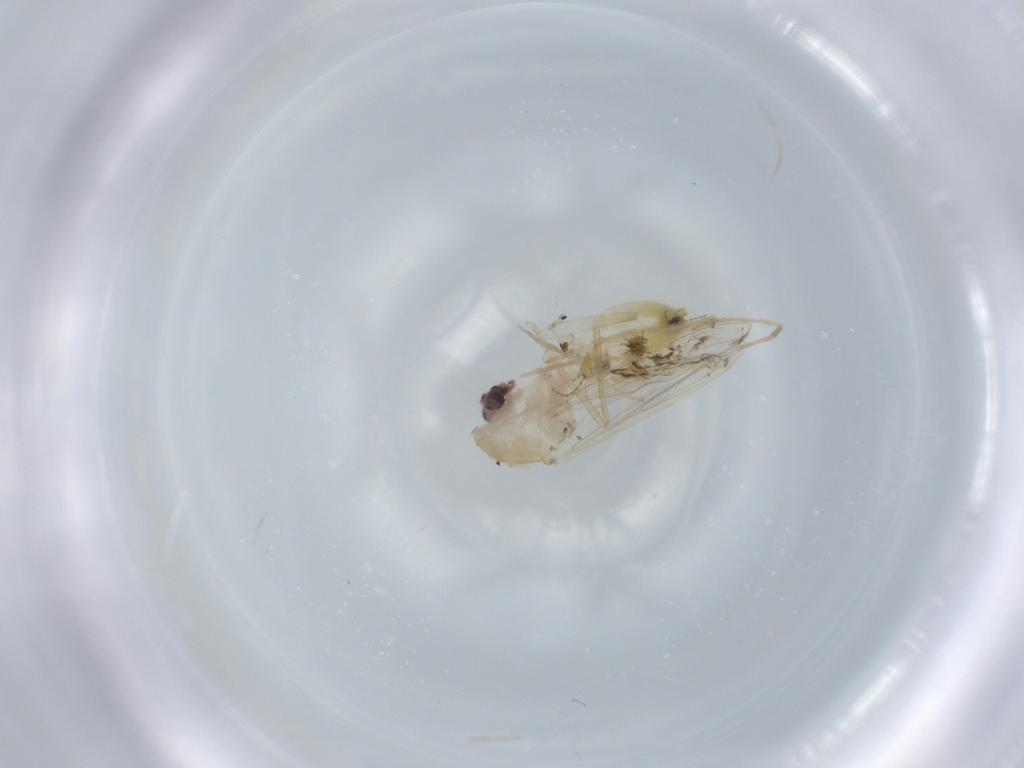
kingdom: Animalia
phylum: Arthropoda
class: Insecta
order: Diptera
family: Chironomidae
